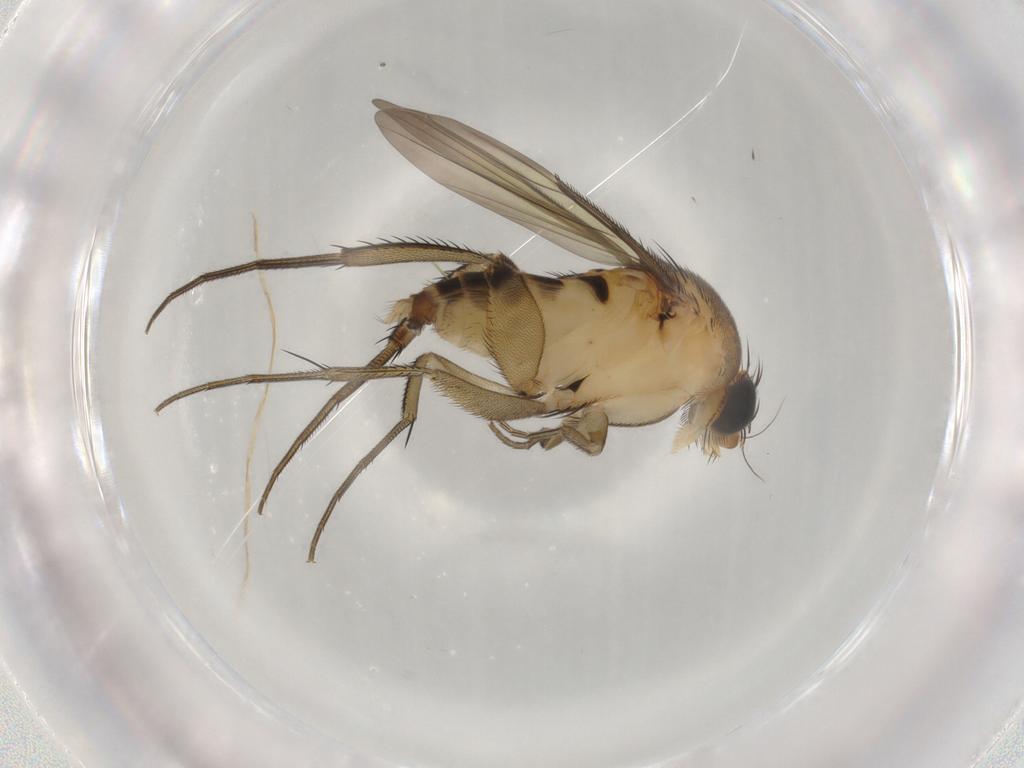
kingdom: Animalia
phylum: Arthropoda
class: Insecta
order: Diptera
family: Phoridae
